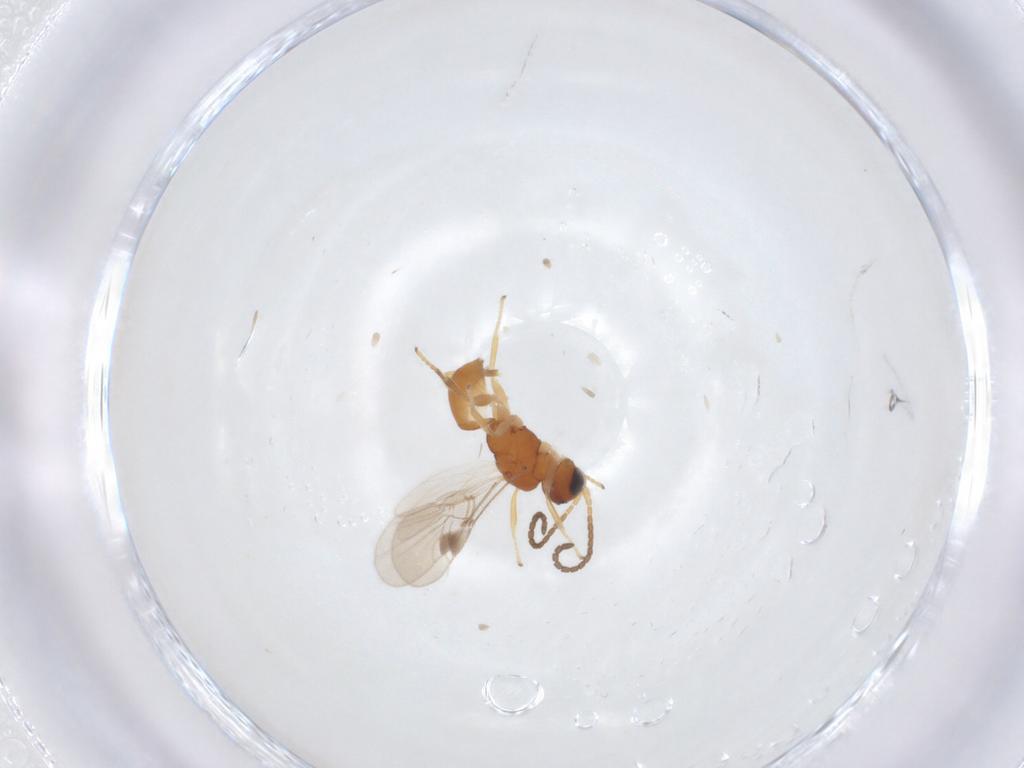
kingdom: Animalia
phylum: Arthropoda
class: Insecta
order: Hymenoptera
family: Braconidae
